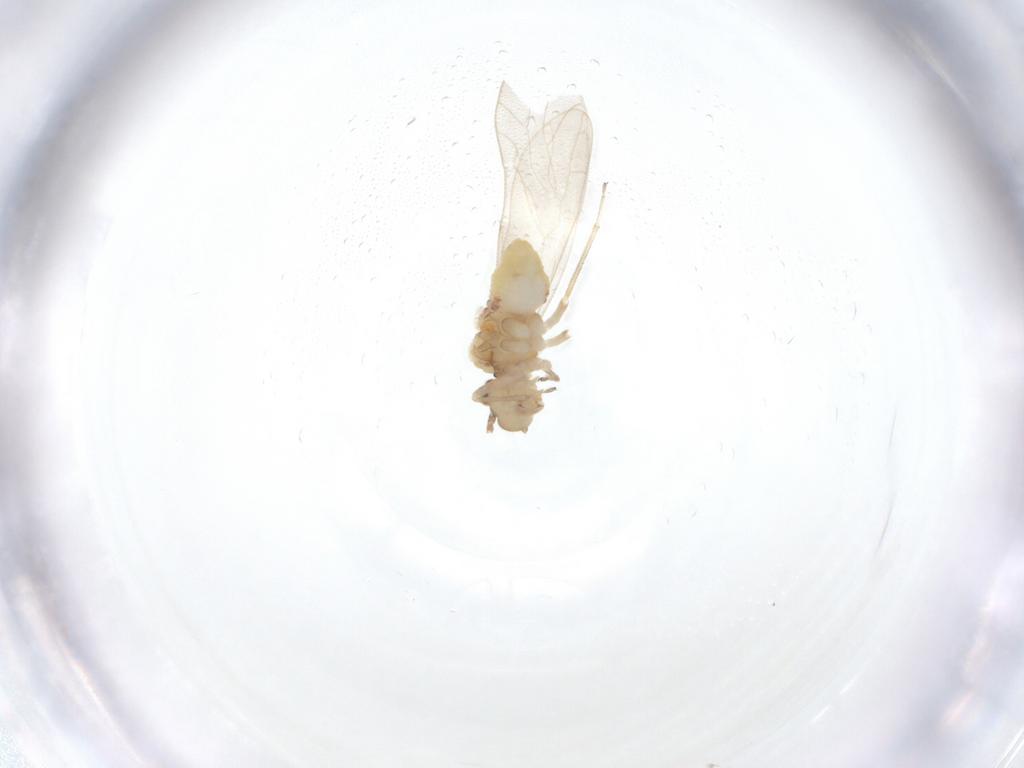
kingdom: Animalia
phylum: Arthropoda
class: Insecta
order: Psocodea
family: Caeciliusidae
